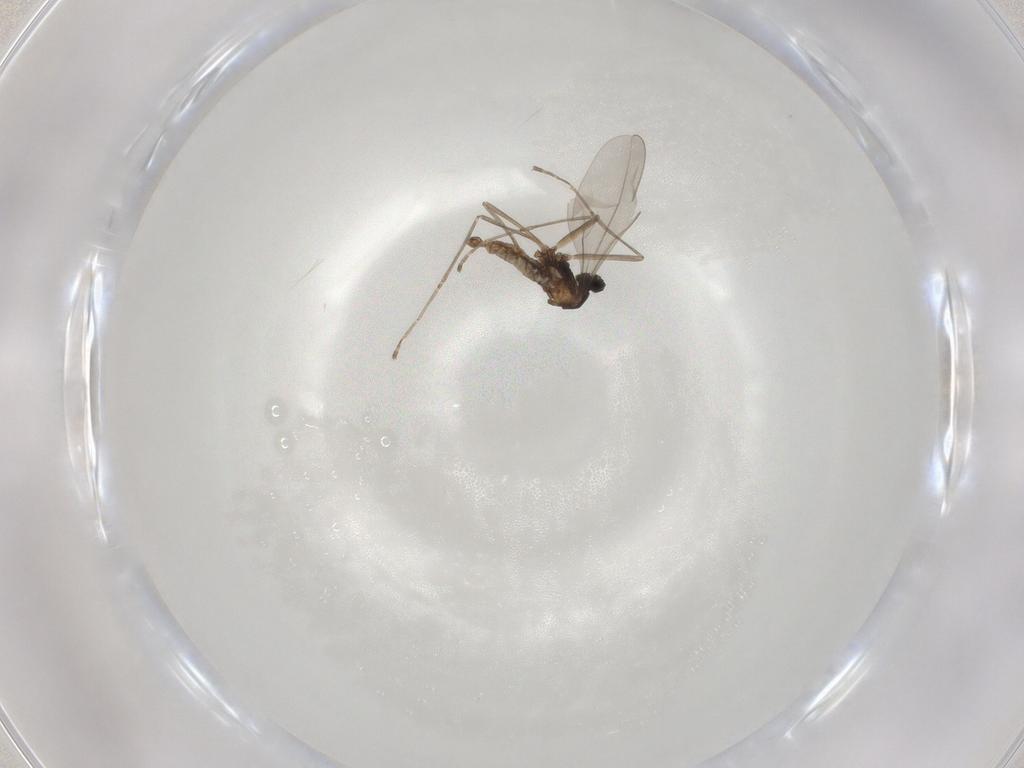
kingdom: Animalia
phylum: Arthropoda
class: Insecta
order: Diptera
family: Cecidomyiidae
